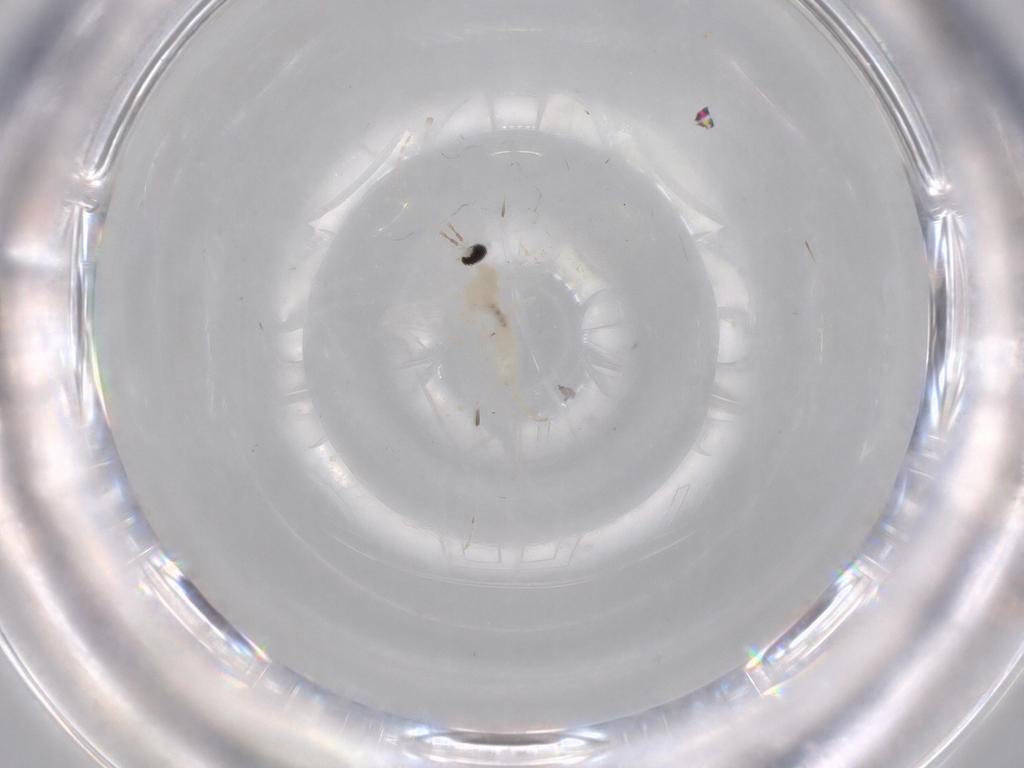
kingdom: Animalia
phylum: Arthropoda
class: Insecta
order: Diptera
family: Cecidomyiidae
